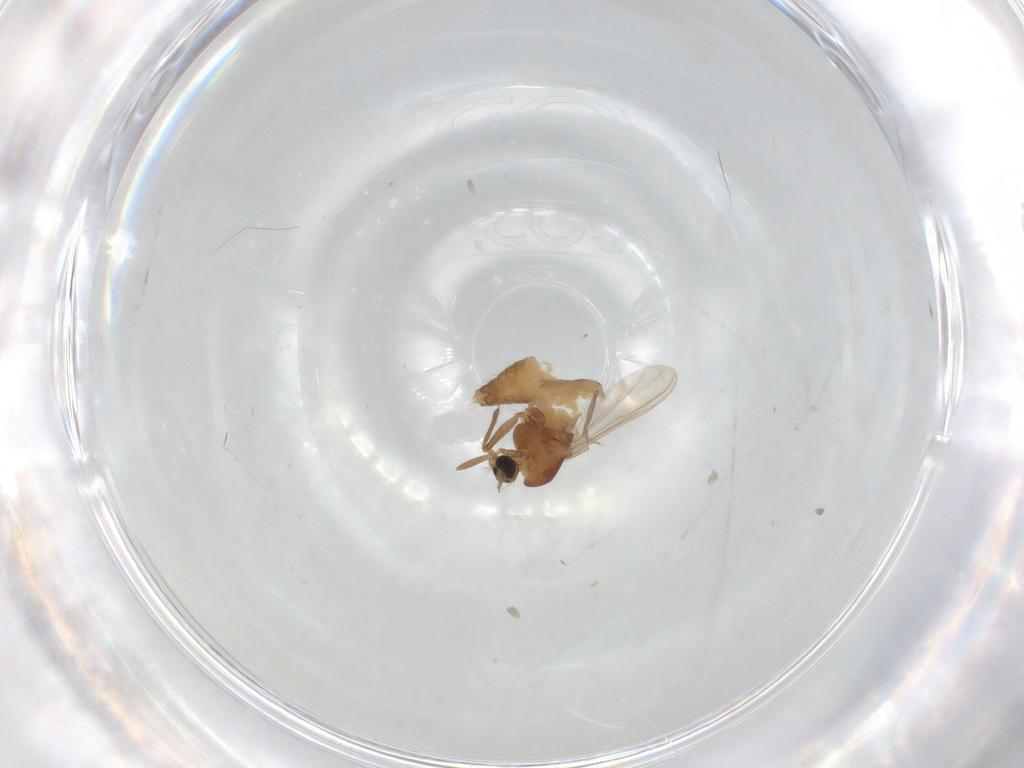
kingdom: Animalia
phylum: Arthropoda
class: Insecta
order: Diptera
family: Chironomidae
